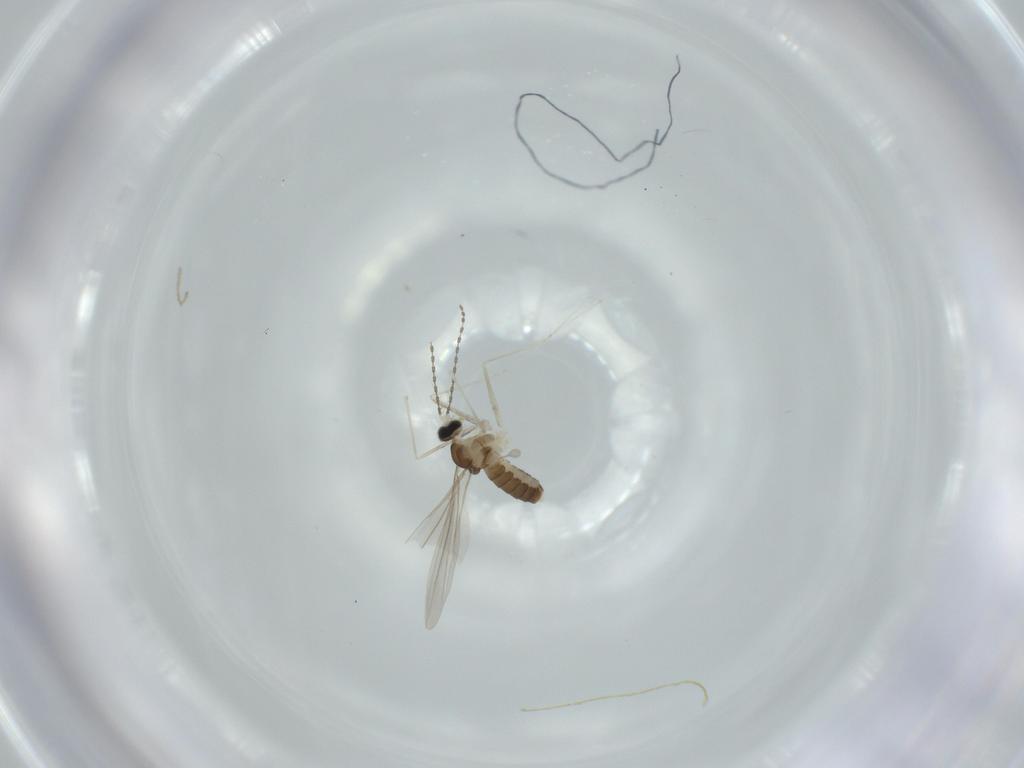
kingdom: Animalia
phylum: Arthropoda
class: Insecta
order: Diptera
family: Cecidomyiidae
